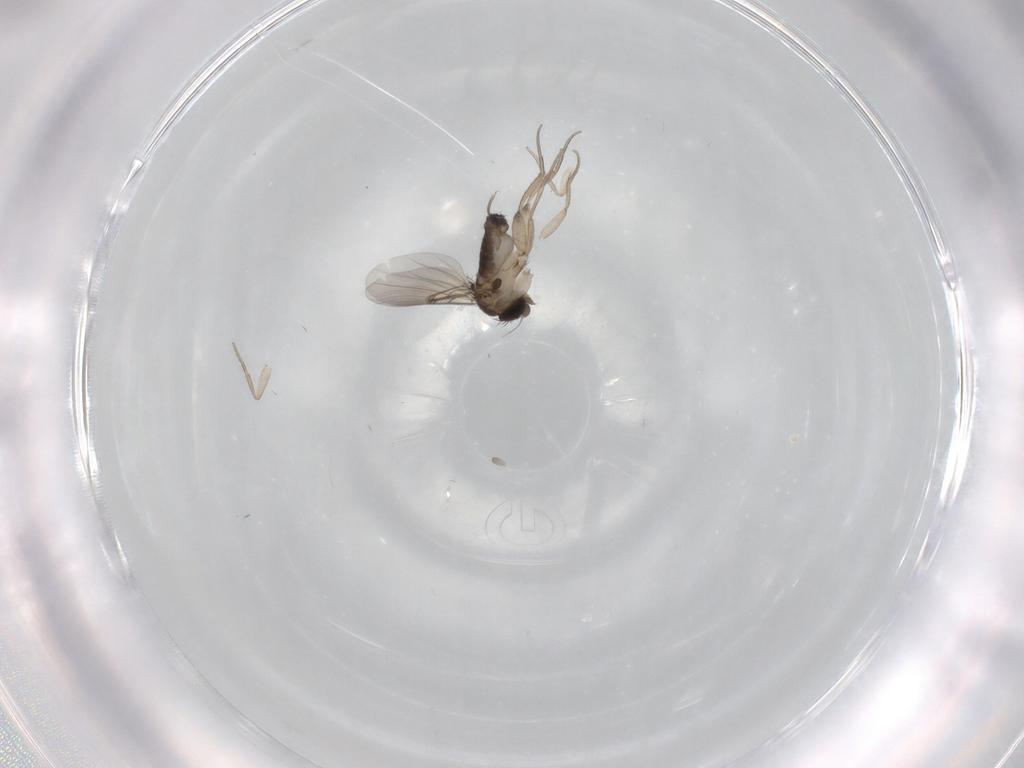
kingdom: Animalia
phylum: Arthropoda
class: Insecta
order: Diptera
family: Phoridae
